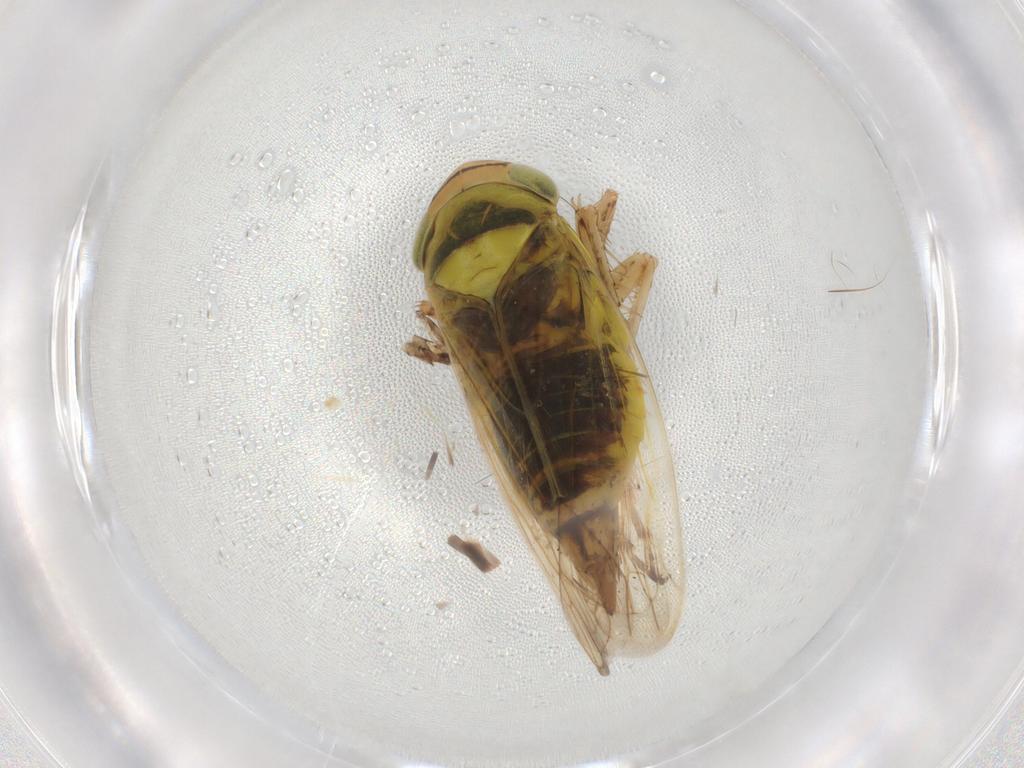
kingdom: Animalia
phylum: Arthropoda
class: Insecta
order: Hemiptera
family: Cicadellidae
